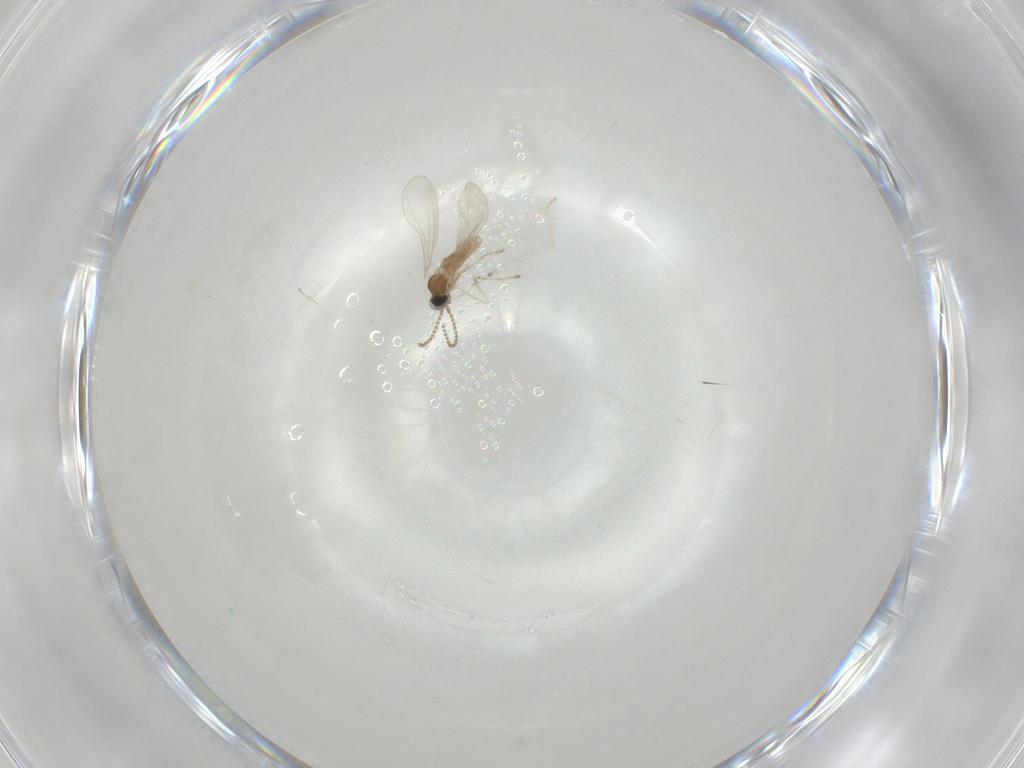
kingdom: Animalia
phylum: Arthropoda
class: Insecta
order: Diptera
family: Cecidomyiidae
